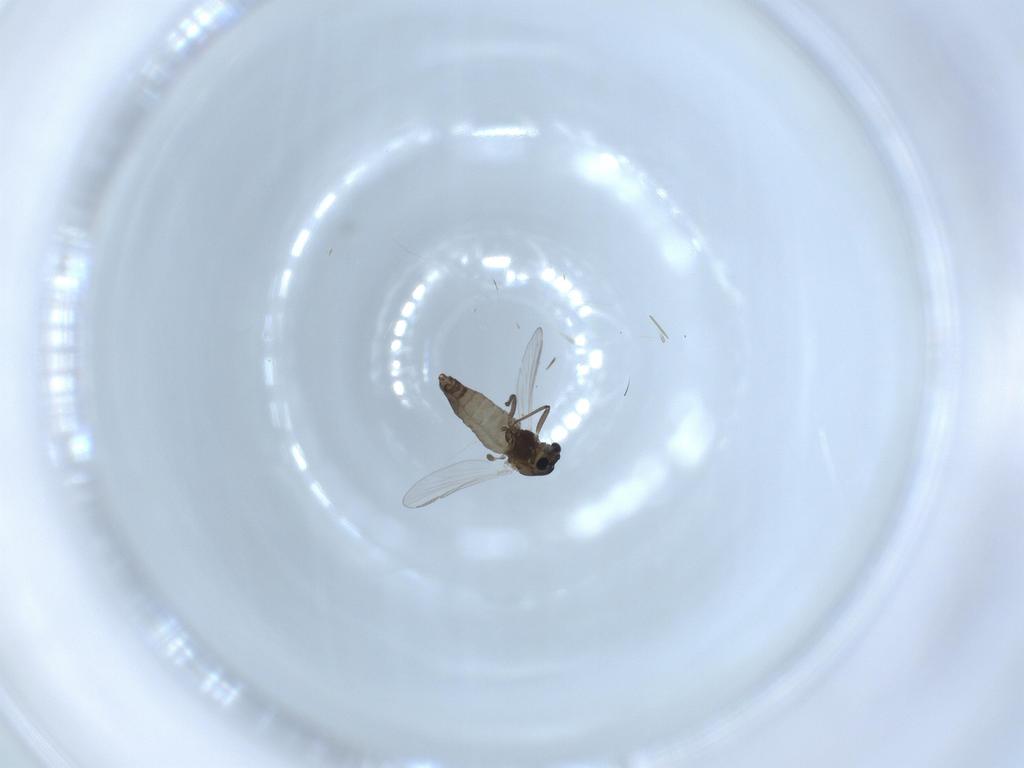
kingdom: Animalia
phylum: Arthropoda
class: Insecta
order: Diptera
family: Chironomidae
